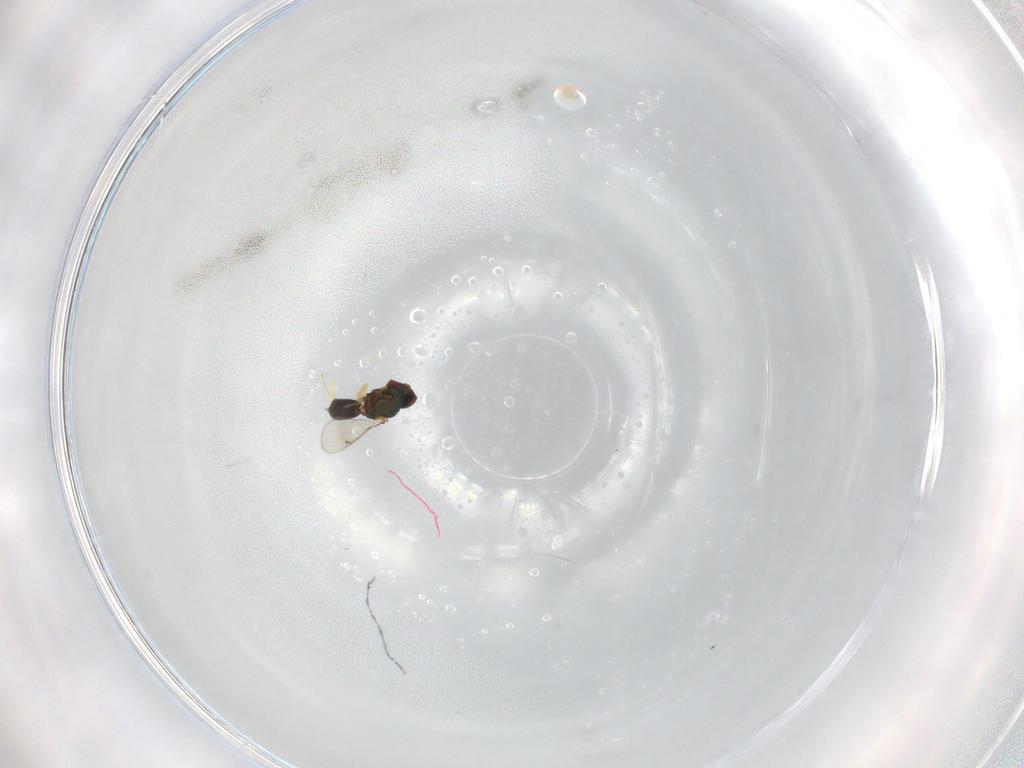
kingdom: Animalia
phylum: Arthropoda
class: Insecta
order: Hymenoptera
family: Eulophidae
